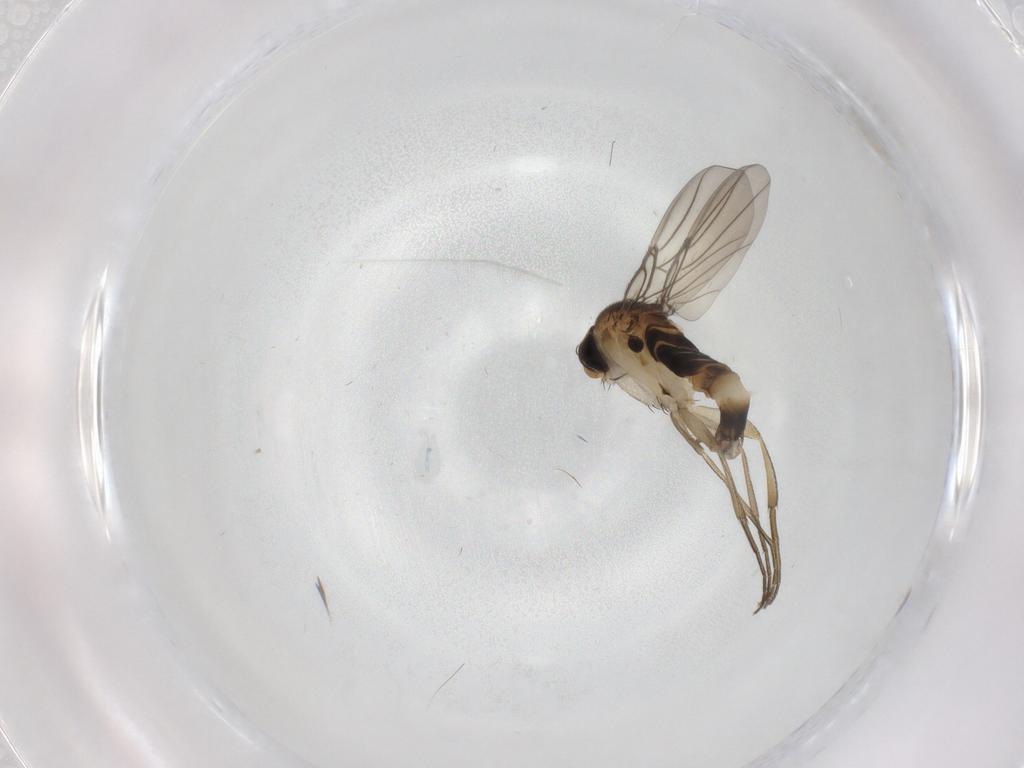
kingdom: Animalia
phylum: Arthropoda
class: Insecta
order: Diptera
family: Phoridae
